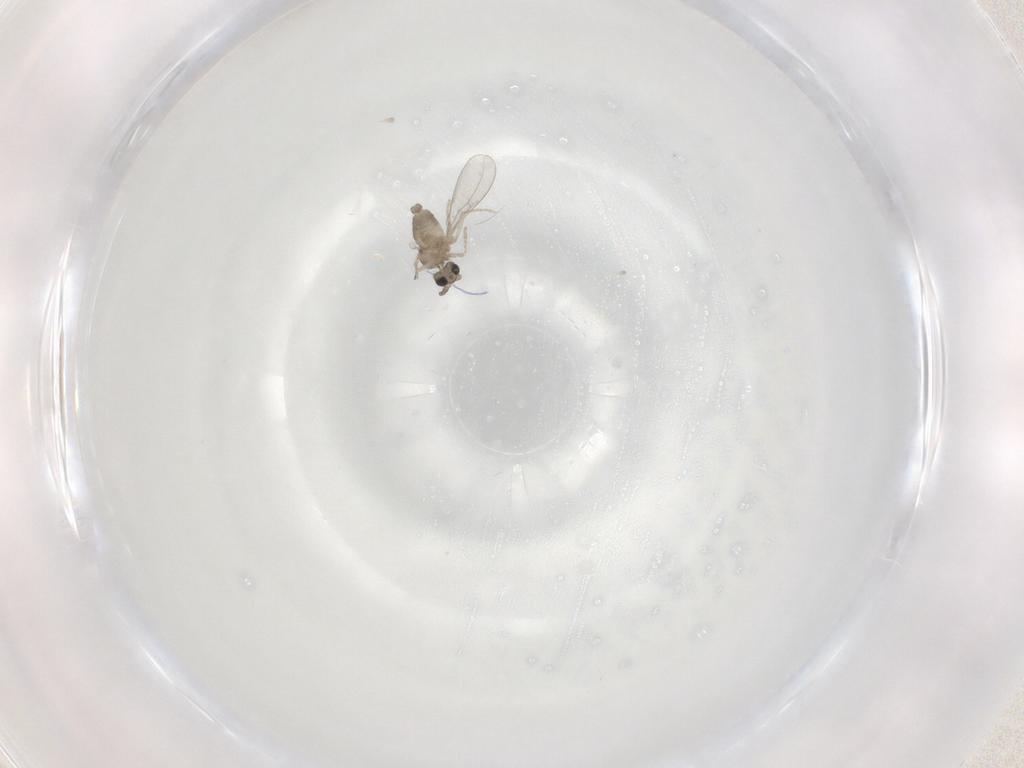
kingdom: Animalia
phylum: Arthropoda
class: Insecta
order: Diptera
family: Cecidomyiidae
